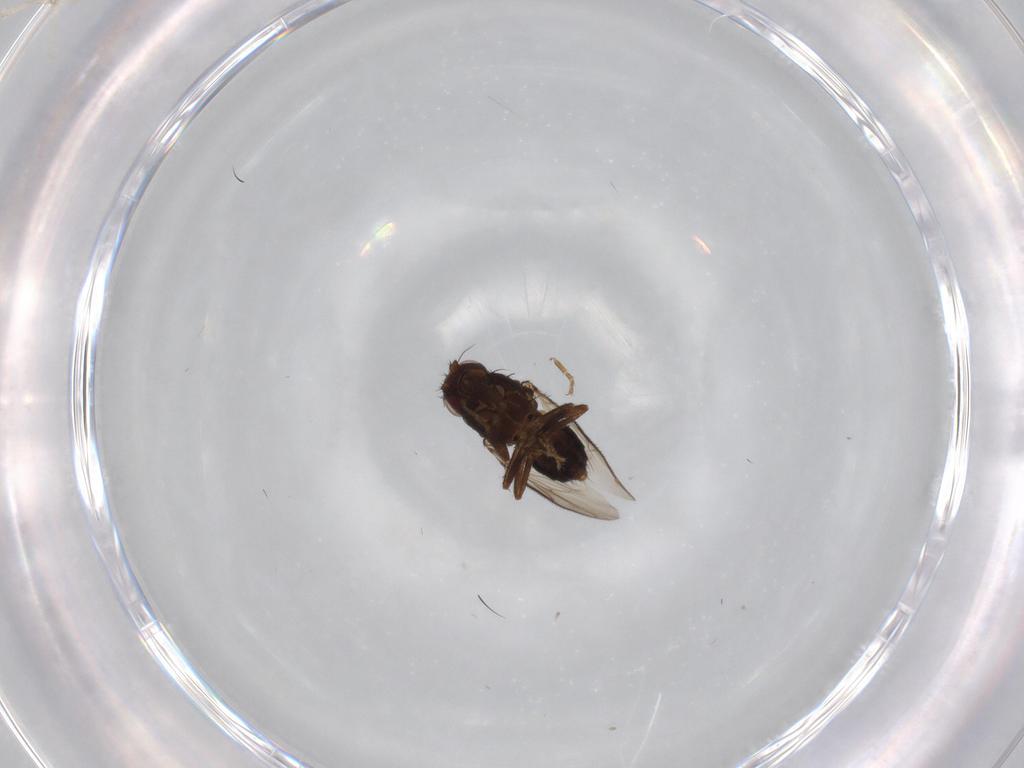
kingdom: Animalia
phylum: Arthropoda
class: Insecta
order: Diptera
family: Sphaeroceridae
